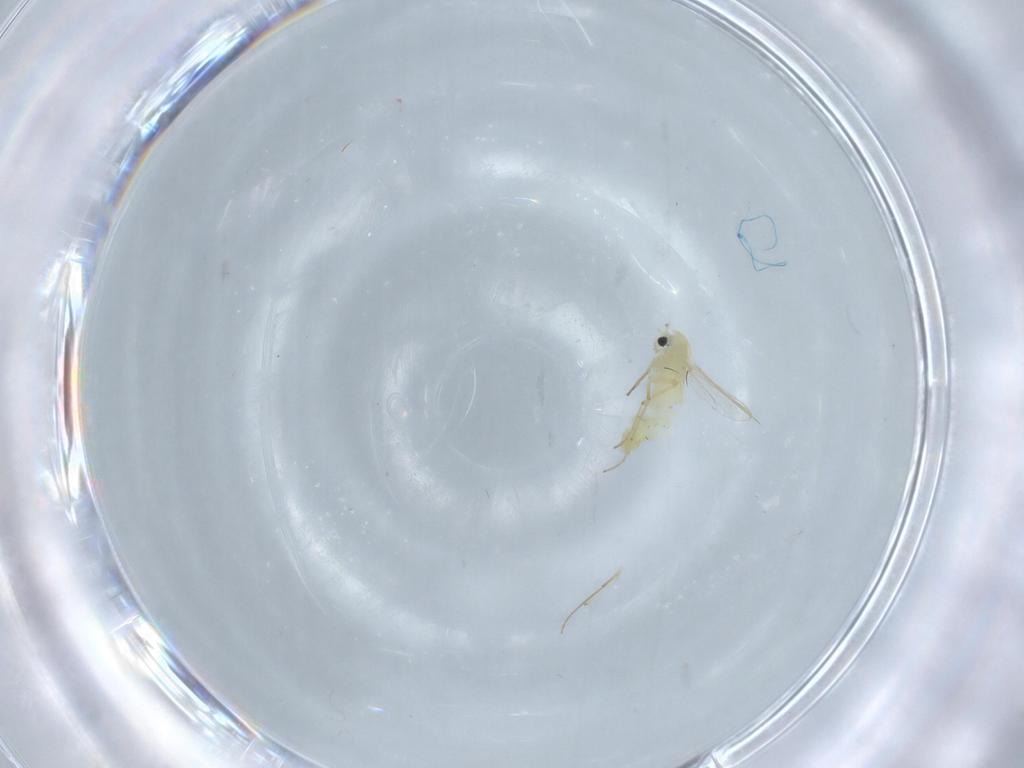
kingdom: Animalia
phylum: Arthropoda
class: Insecta
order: Diptera
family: Chironomidae
